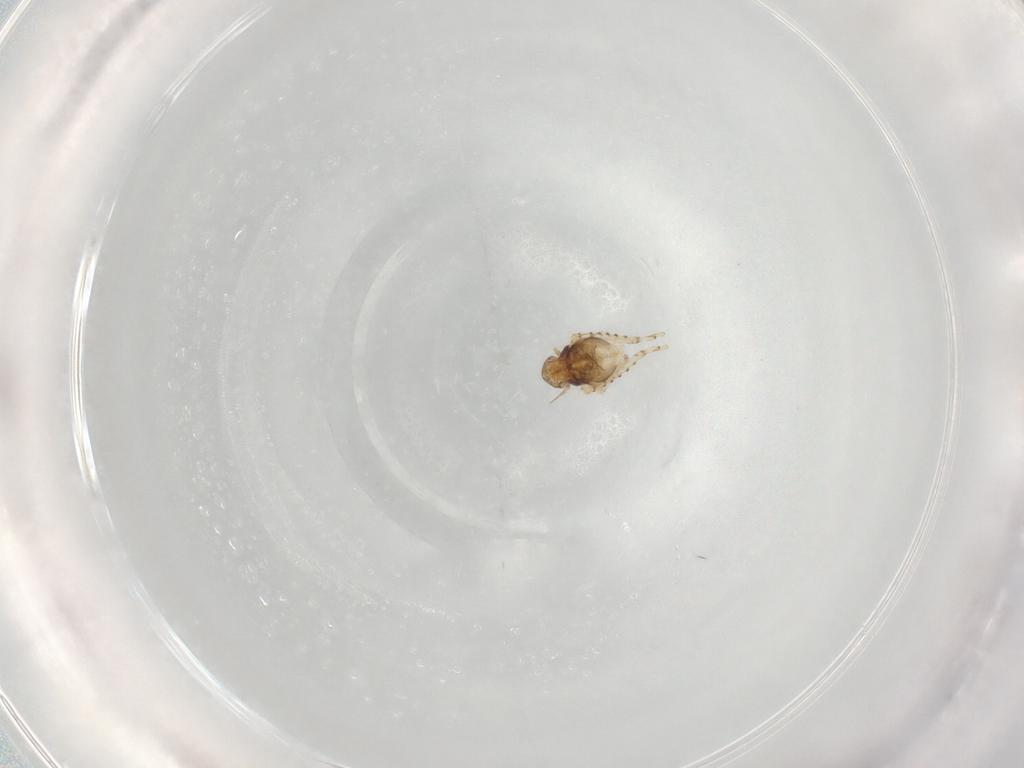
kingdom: Animalia
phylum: Arthropoda
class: Insecta
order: Hemiptera
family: Cicadellidae
